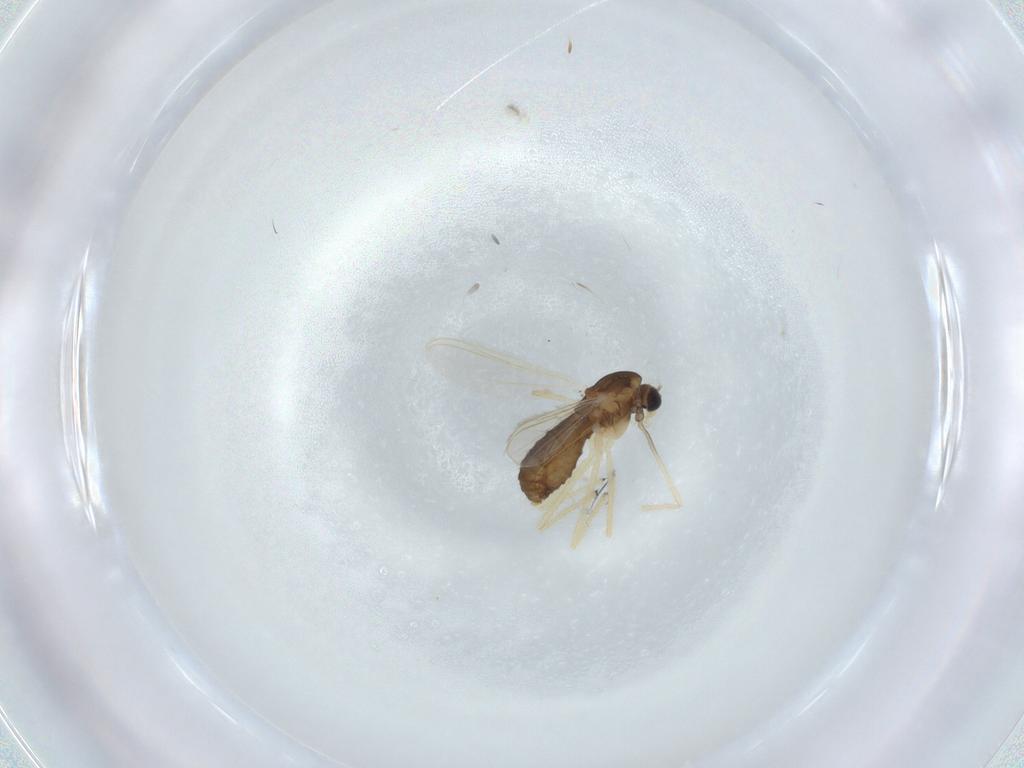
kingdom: Animalia
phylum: Arthropoda
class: Insecta
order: Diptera
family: Chironomidae
